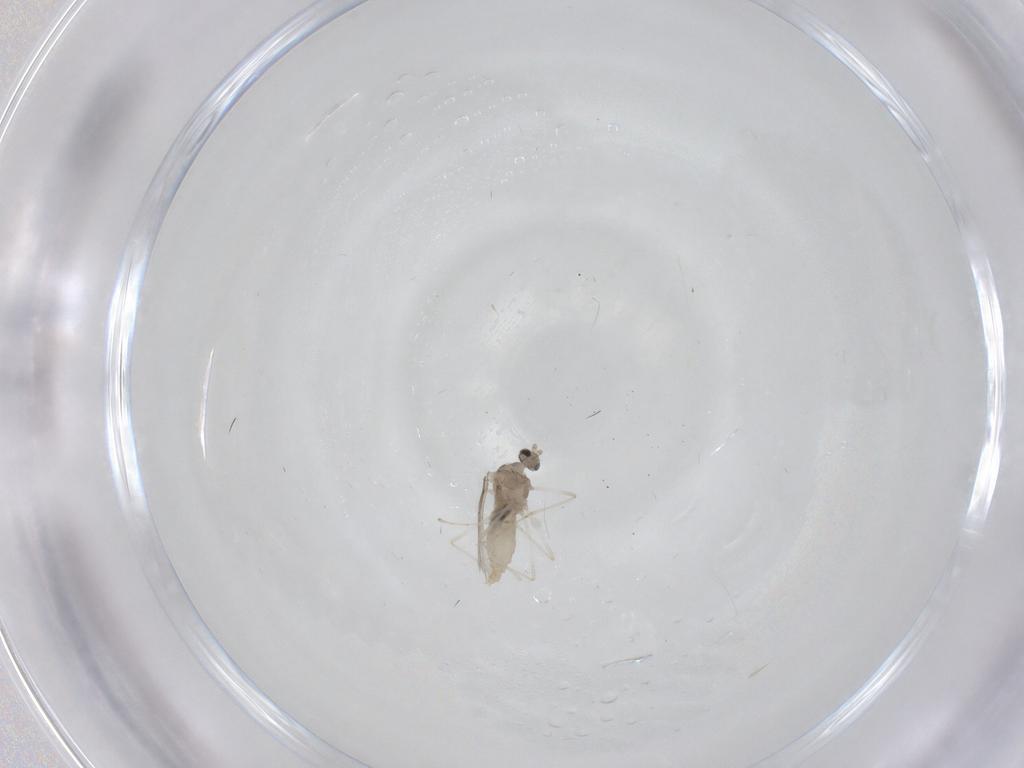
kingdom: Animalia
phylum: Arthropoda
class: Insecta
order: Diptera
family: Cecidomyiidae
